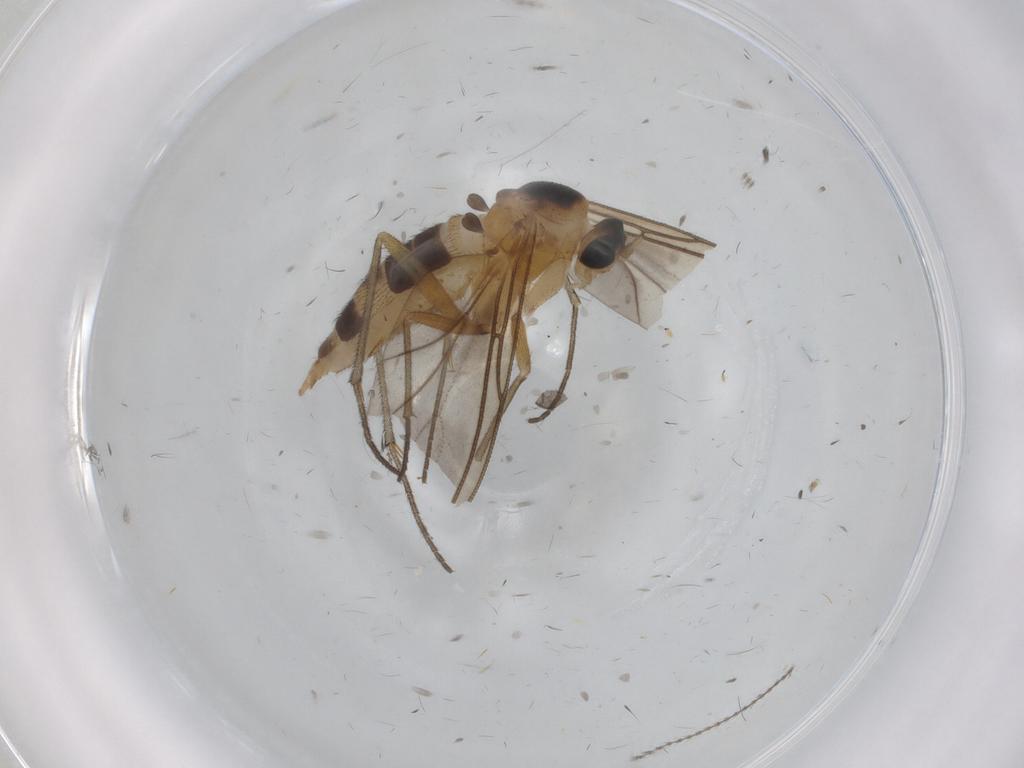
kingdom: Animalia
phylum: Arthropoda
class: Insecta
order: Diptera
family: Sciaridae
